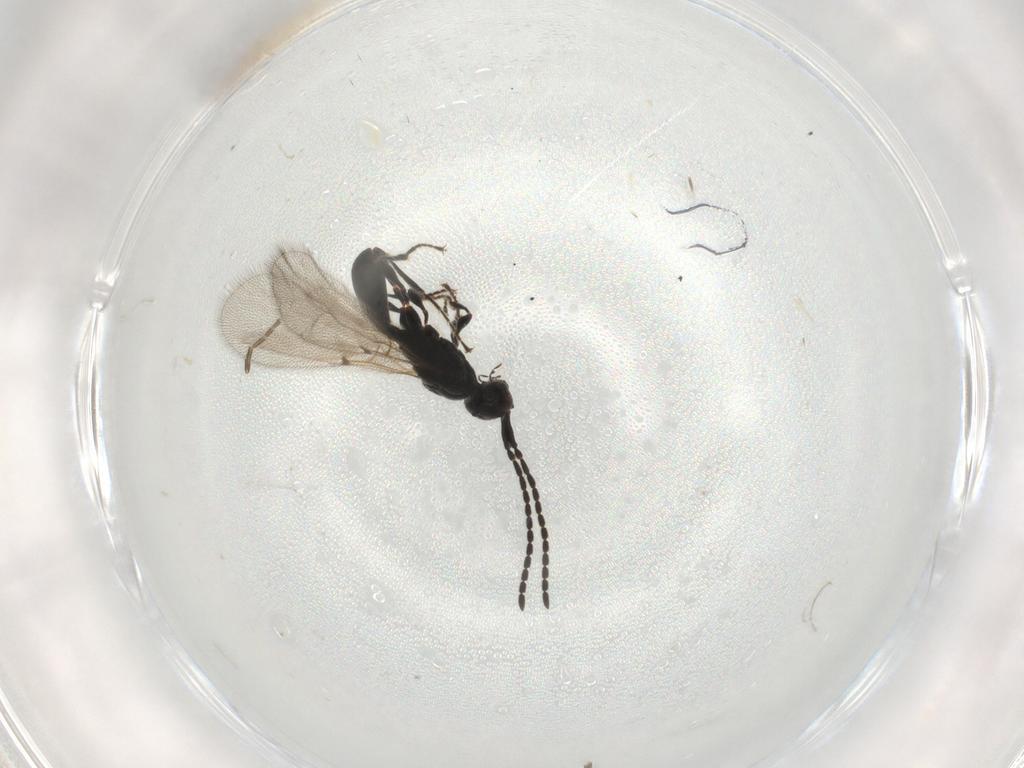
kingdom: Animalia
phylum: Arthropoda
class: Insecta
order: Hymenoptera
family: Diapriidae
